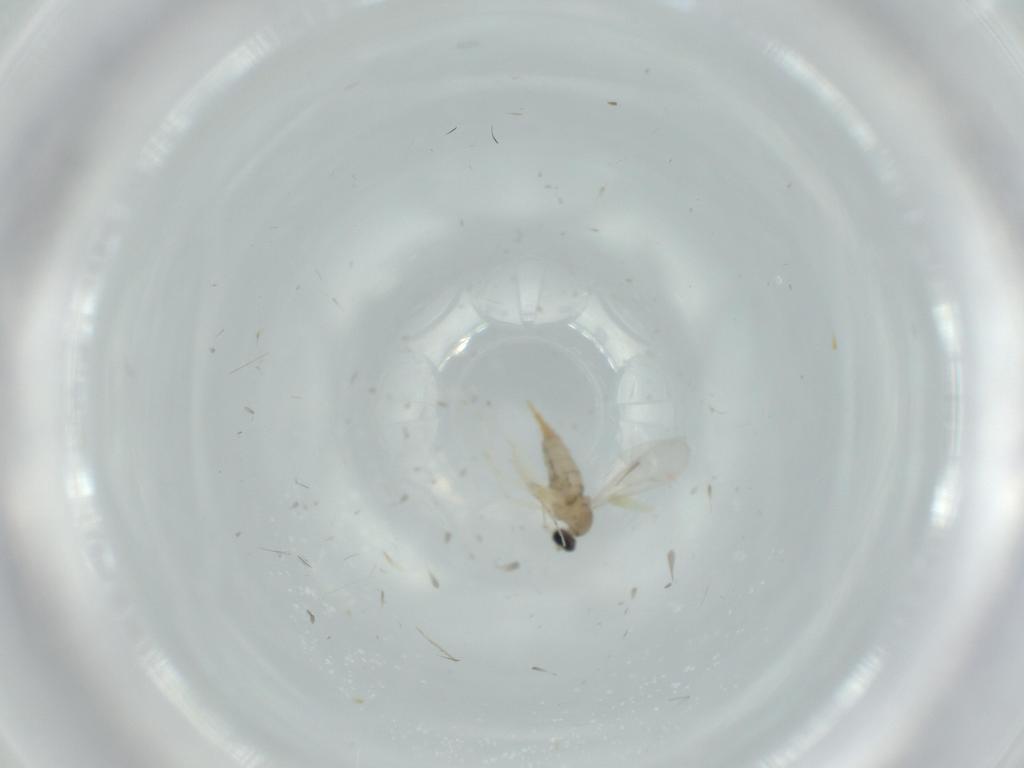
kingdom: Animalia
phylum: Arthropoda
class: Insecta
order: Diptera
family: Cecidomyiidae
